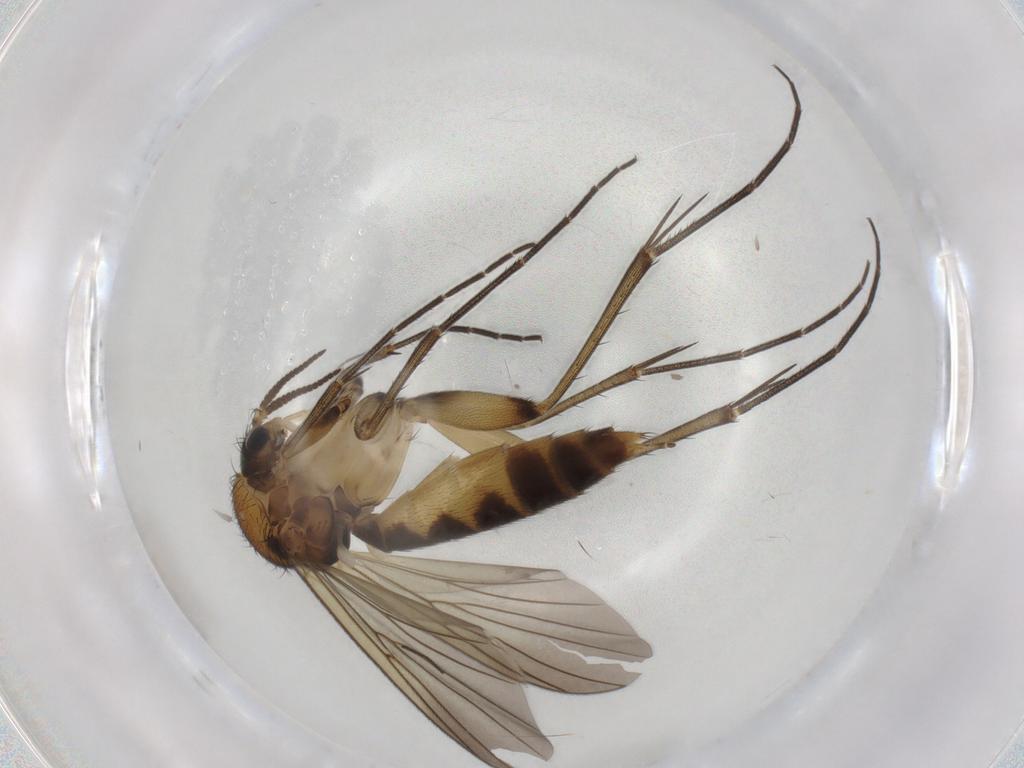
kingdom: Animalia
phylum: Arthropoda
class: Insecta
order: Diptera
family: Mycetophilidae
